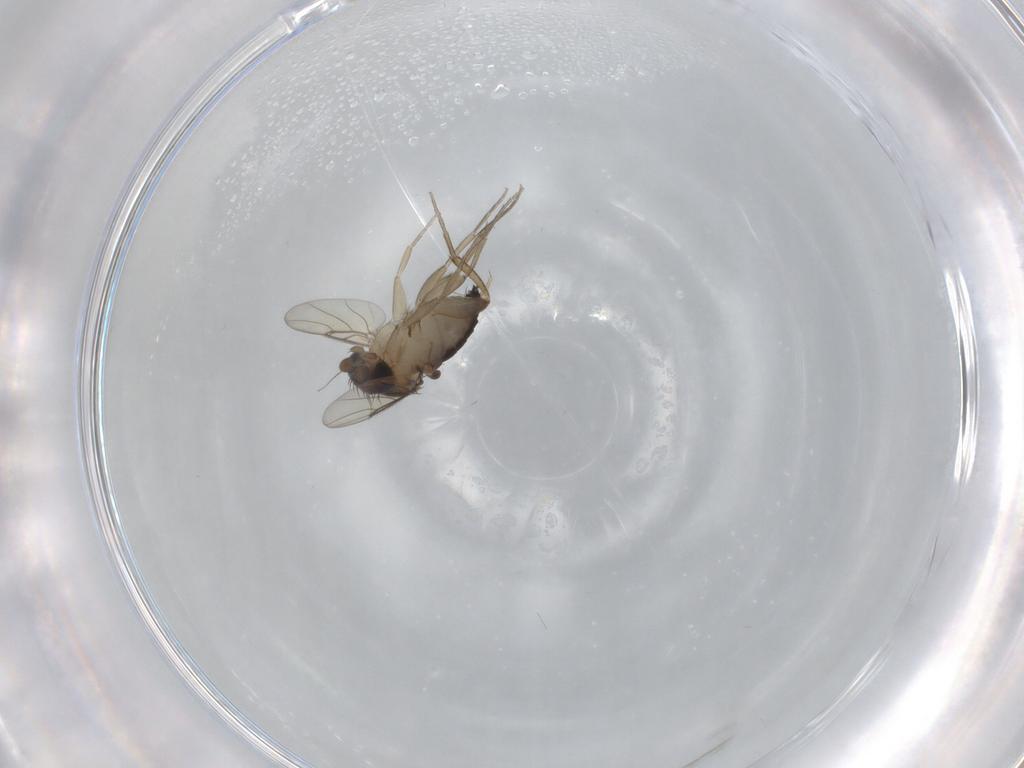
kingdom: Animalia
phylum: Arthropoda
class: Insecta
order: Diptera
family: Phoridae
